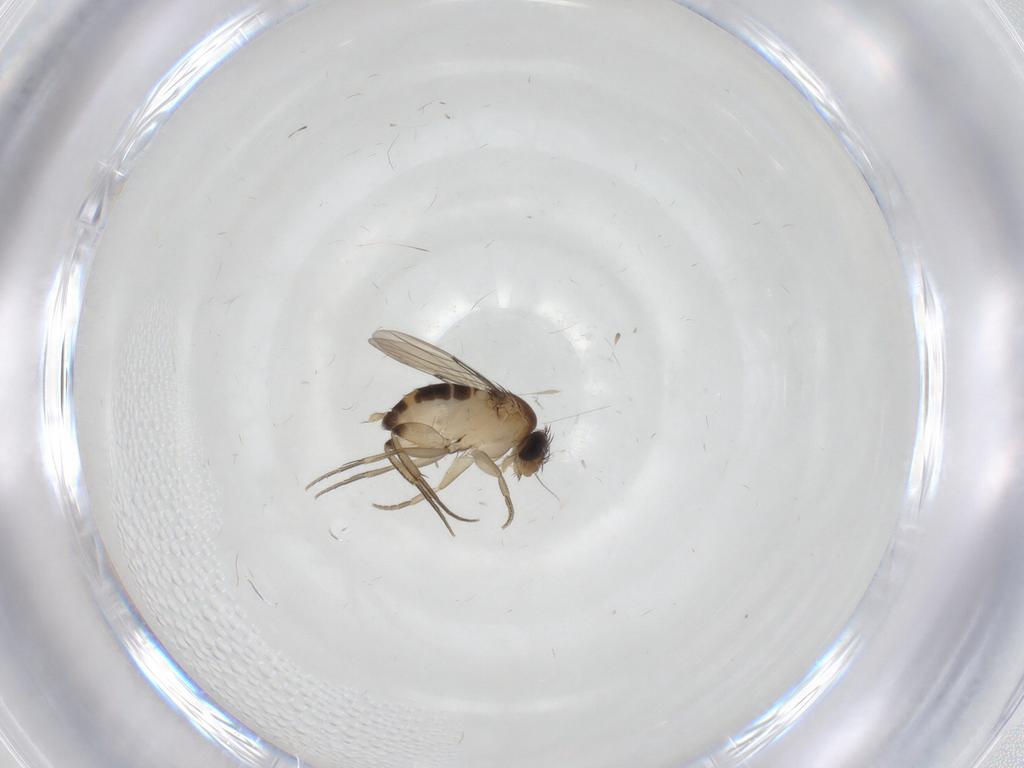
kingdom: Animalia
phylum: Arthropoda
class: Insecta
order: Diptera
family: Phoridae
